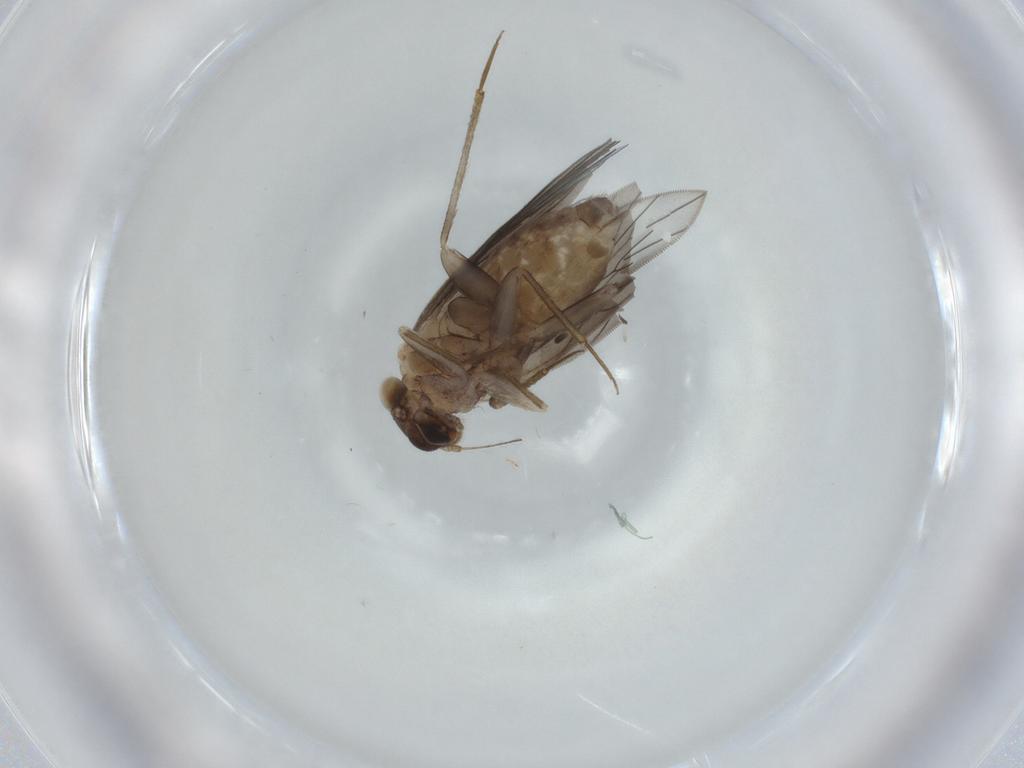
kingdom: Animalia
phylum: Arthropoda
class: Insecta
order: Psocodea
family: Lepidopsocidae
